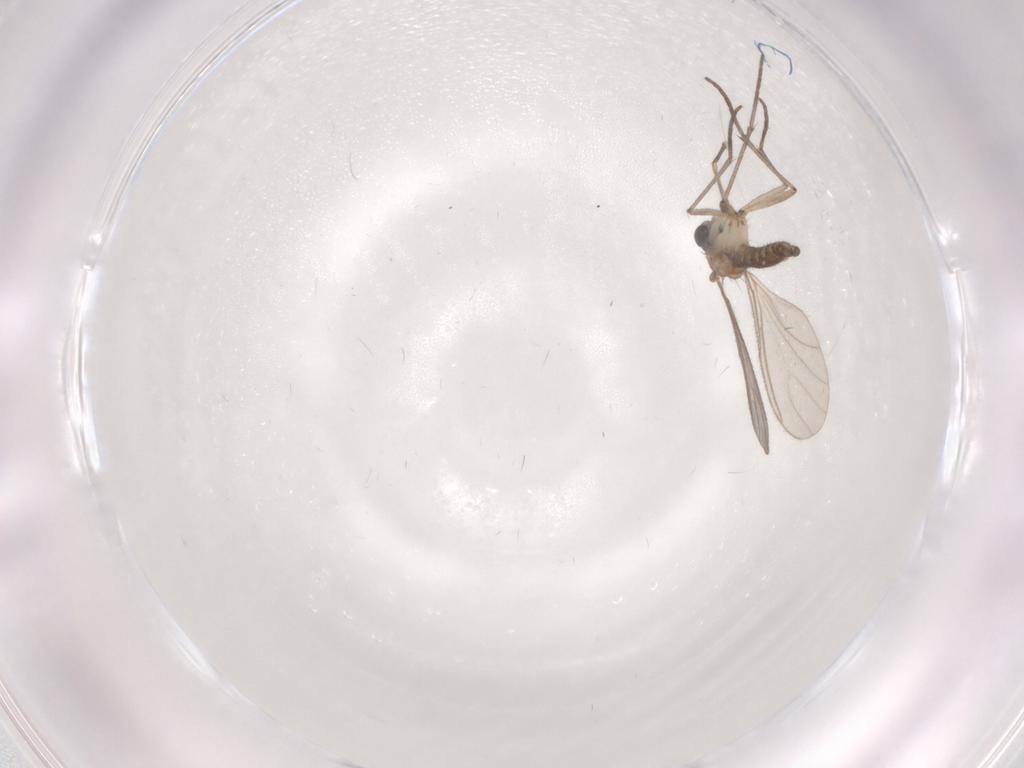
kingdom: Animalia
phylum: Arthropoda
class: Insecta
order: Diptera
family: Sciaridae
